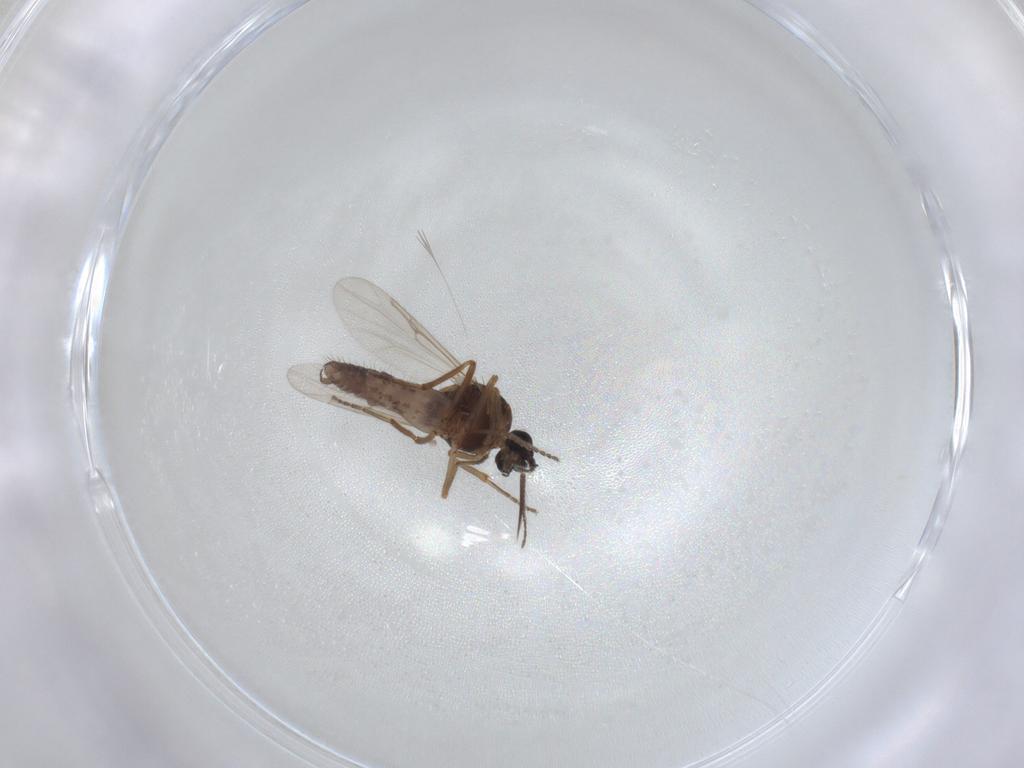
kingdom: Animalia
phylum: Arthropoda
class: Insecta
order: Diptera
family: Ceratopogonidae
